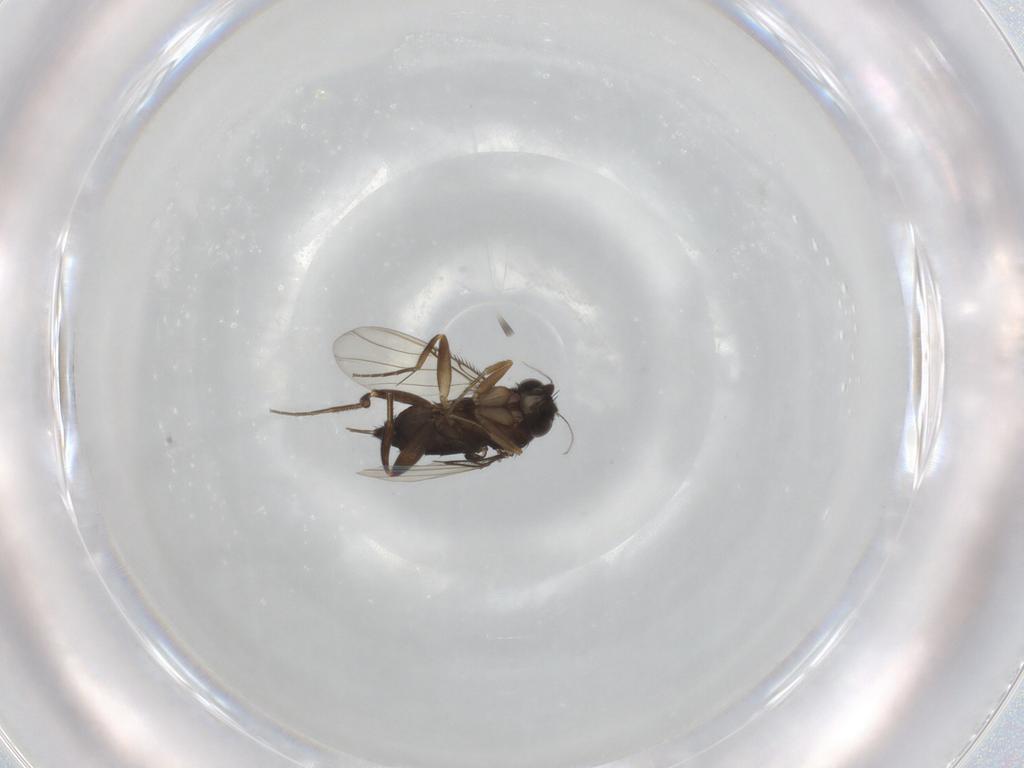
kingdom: Animalia
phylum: Arthropoda
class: Insecta
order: Diptera
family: Phoridae
